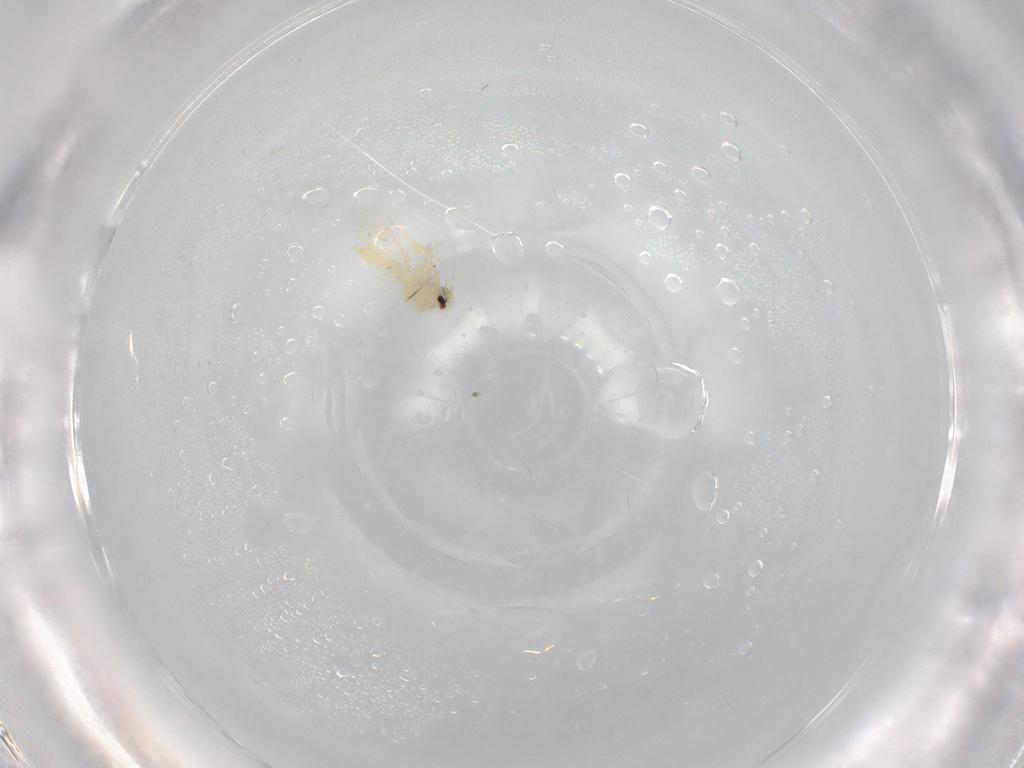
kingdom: Animalia
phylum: Arthropoda
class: Insecta
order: Hemiptera
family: Aleyrodidae
